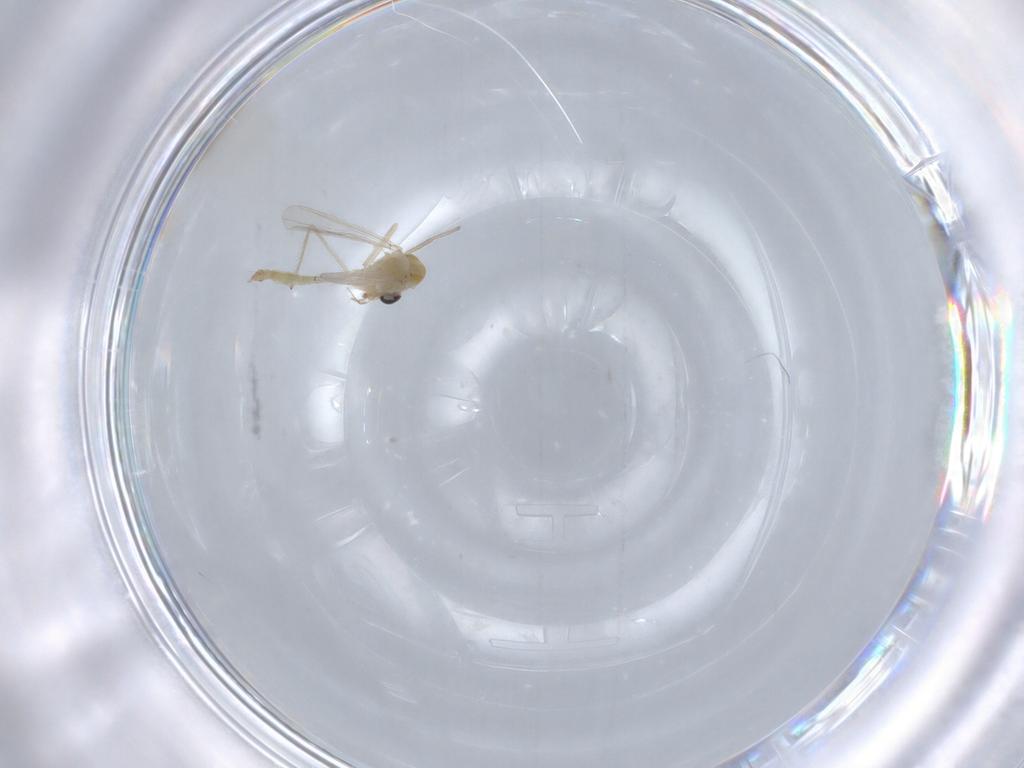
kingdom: Animalia
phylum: Arthropoda
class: Insecta
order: Diptera
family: Chironomidae
